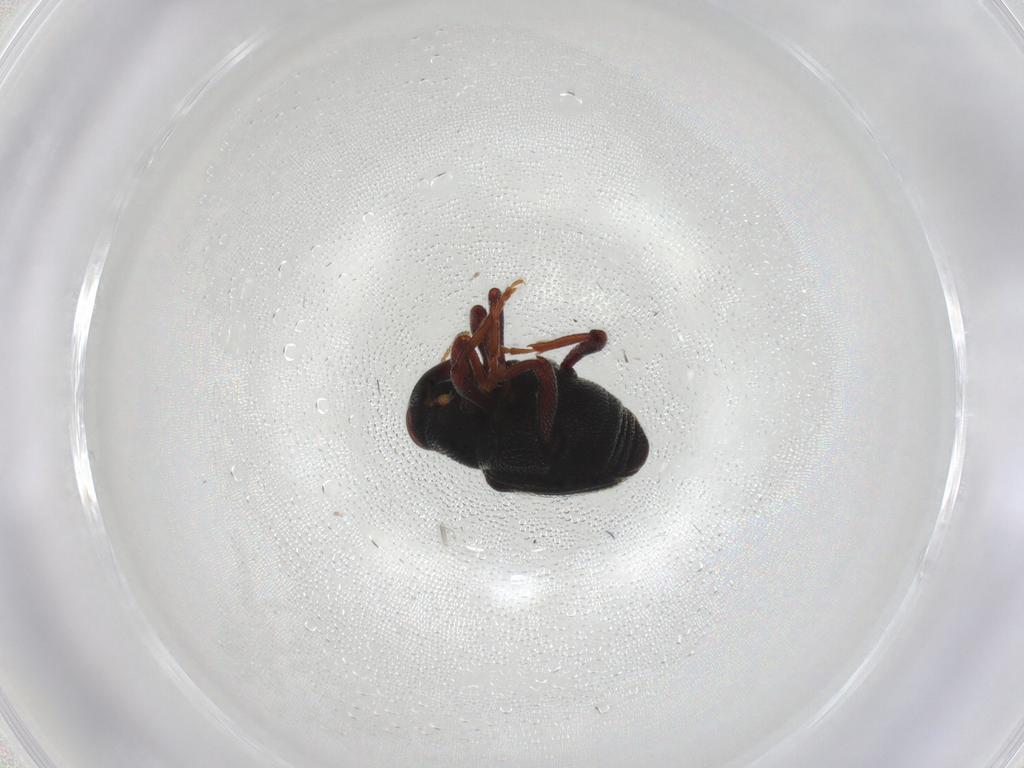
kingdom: Animalia
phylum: Arthropoda
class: Insecta
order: Coleoptera
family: Curculionidae
